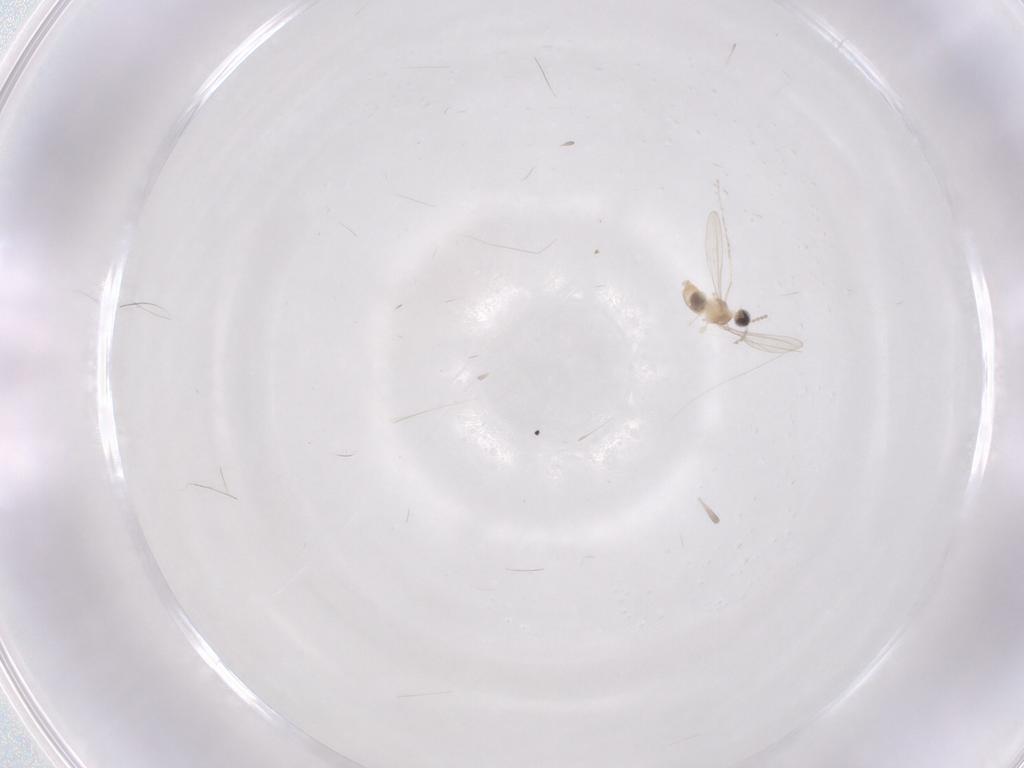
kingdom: Animalia
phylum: Arthropoda
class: Insecta
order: Diptera
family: Cecidomyiidae
